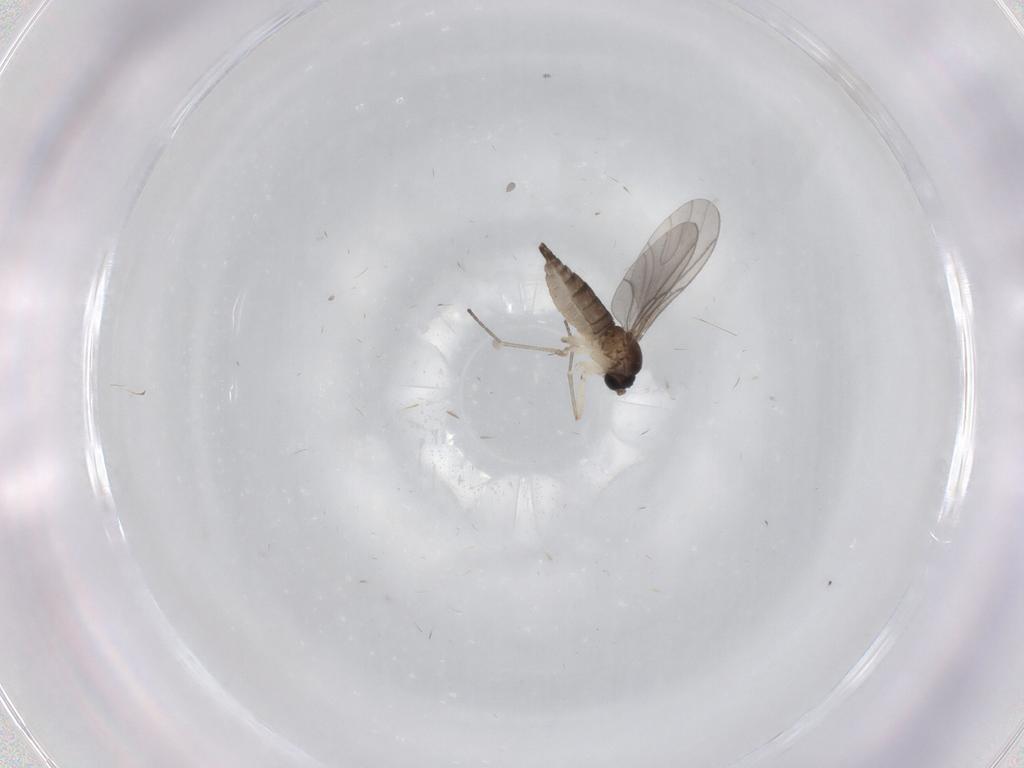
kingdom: Animalia
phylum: Arthropoda
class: Insecta
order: Diptera
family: Cecidomyiidae
